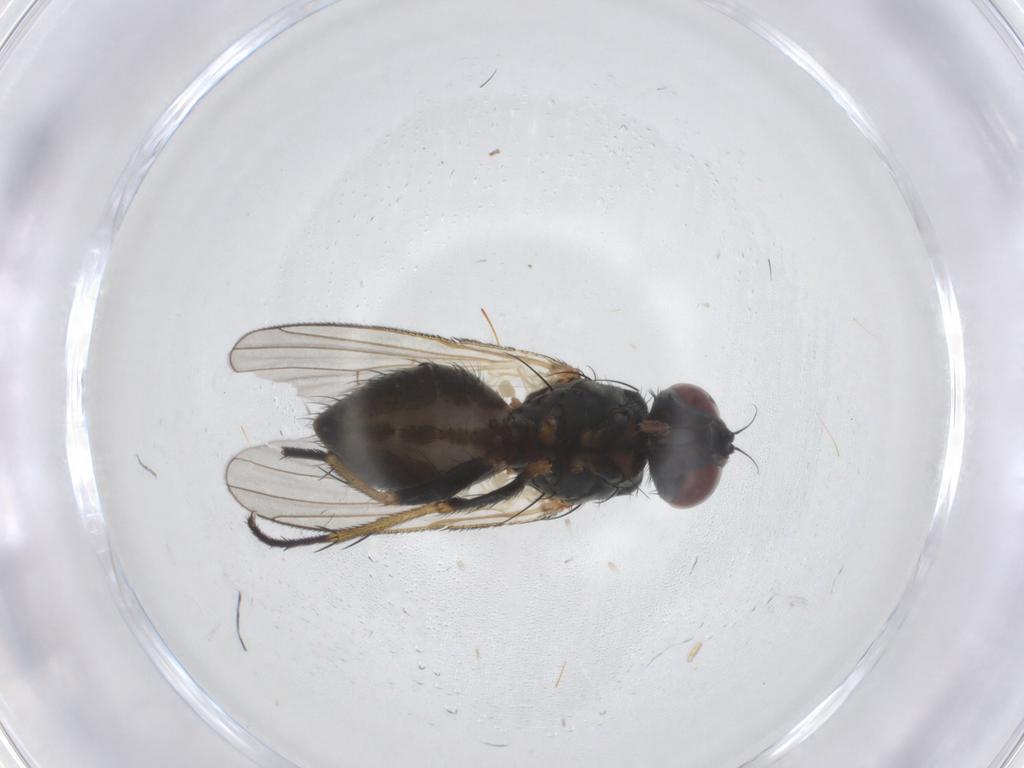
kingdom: Animalia
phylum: Arthropoda
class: Insecta
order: Diptera
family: Chironomidae
